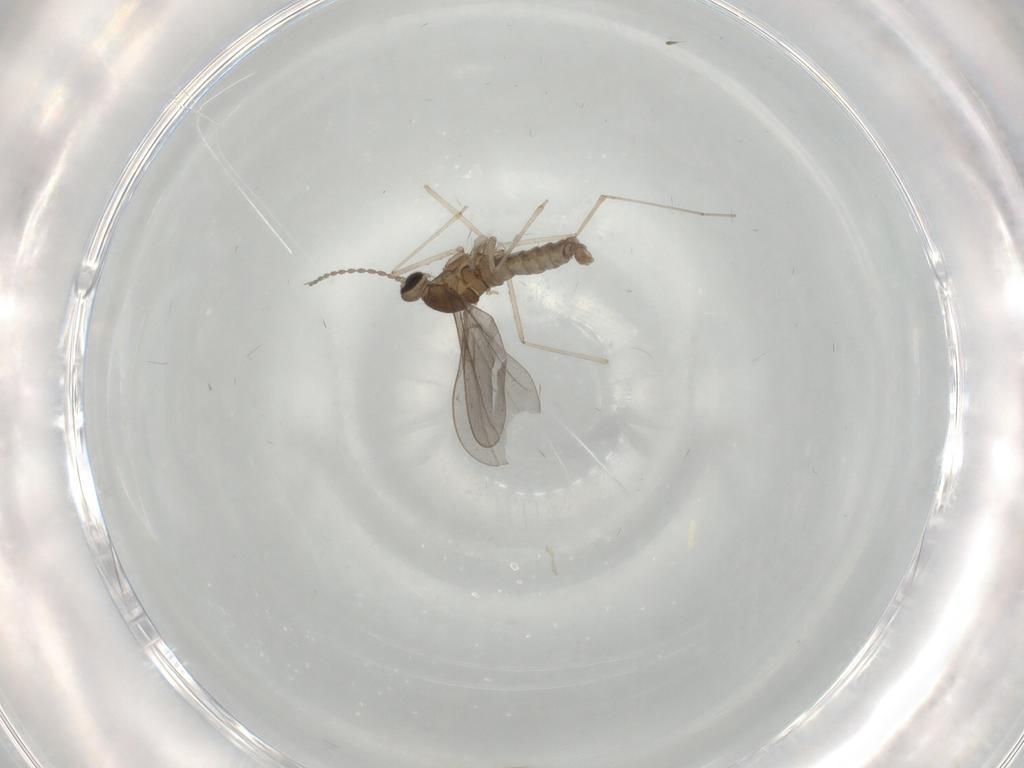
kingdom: Animalia
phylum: Arthropoda
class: Insecta
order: Diptera
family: Cecidomyiidae
